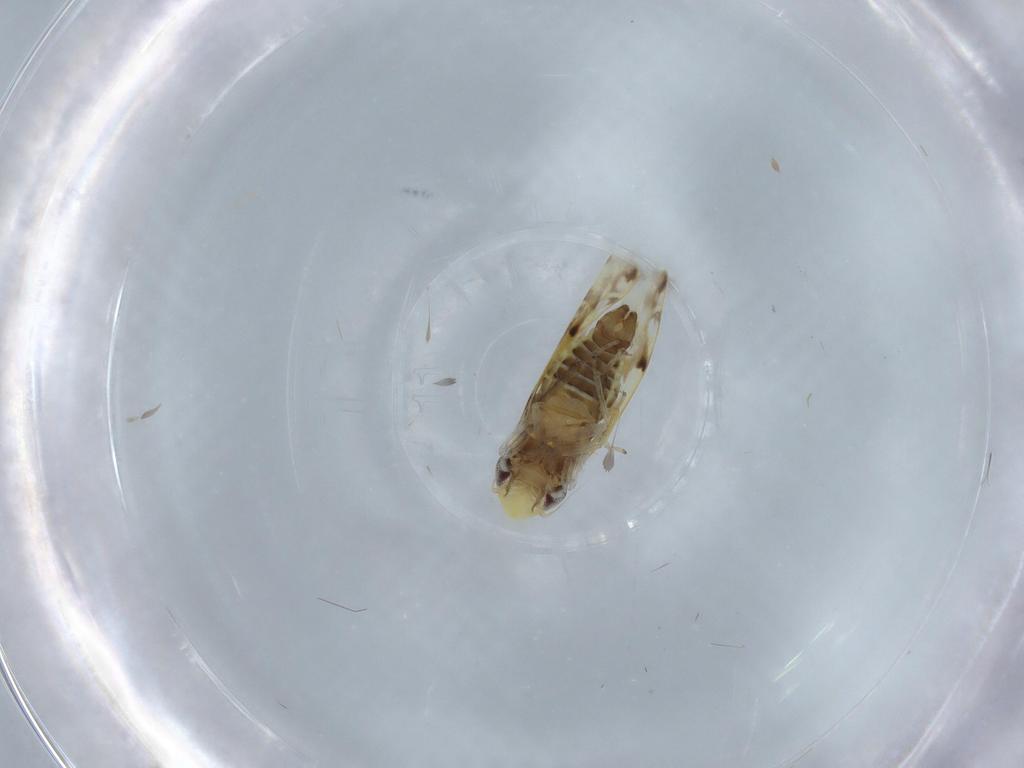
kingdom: Animalia
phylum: Arthropoda
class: Insecta
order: Hemiptera
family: Cicadellidae
